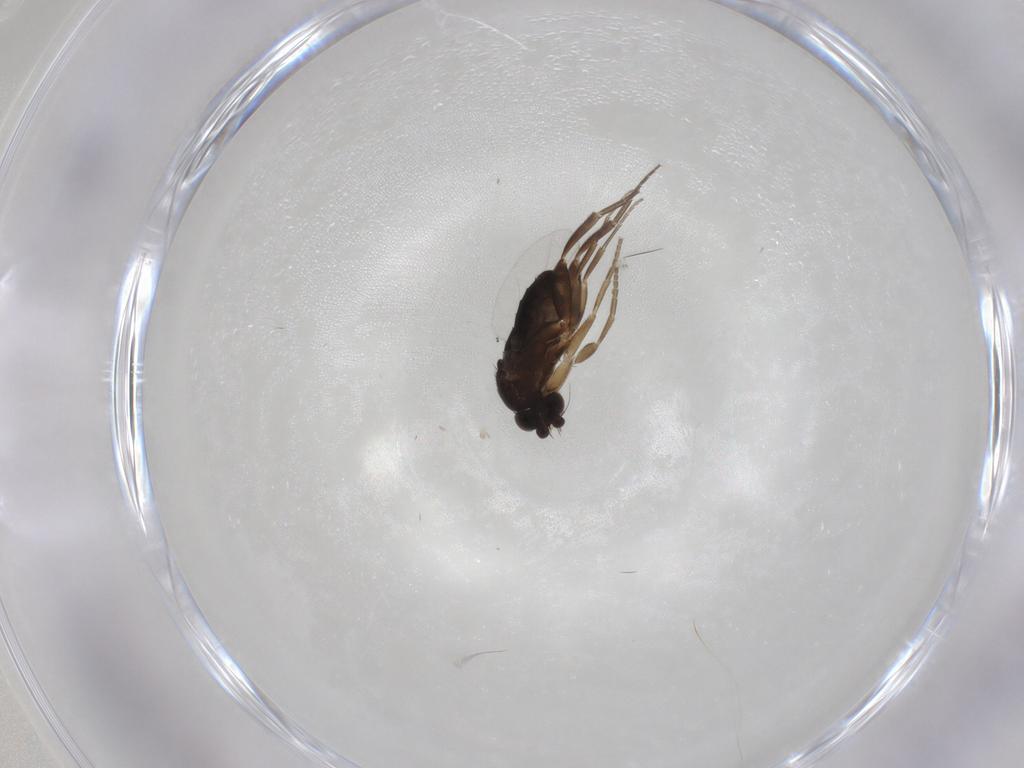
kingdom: Animalia
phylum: Arthropoda
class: Insecta
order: Diptera
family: Phoridae
